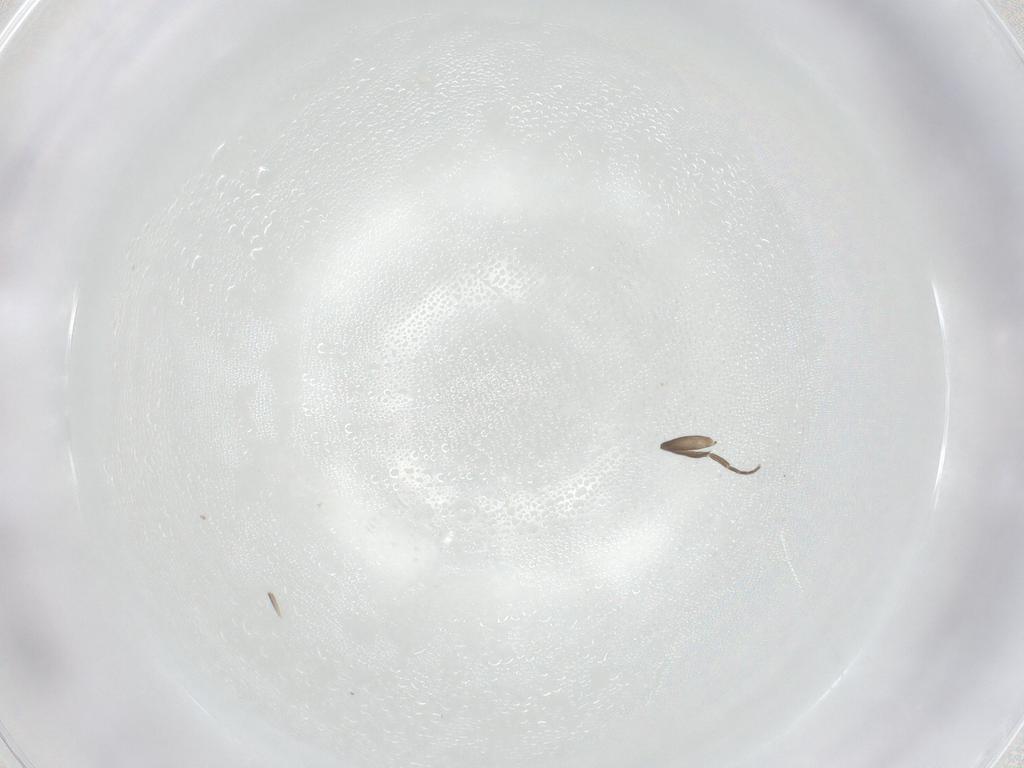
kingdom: Animalia
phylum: Arthropoda
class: Insecta
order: Diptera
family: Phoridae
